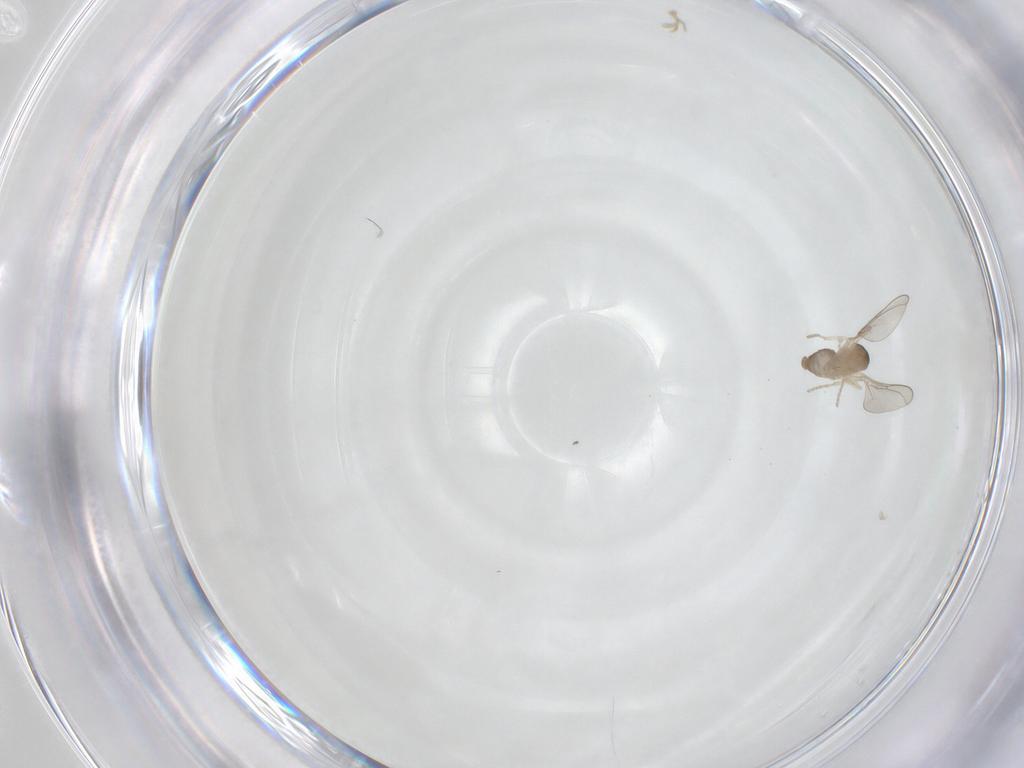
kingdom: Animalia
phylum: Arthropoda
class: Insecta
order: Diptera
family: Cecidomyiidae
